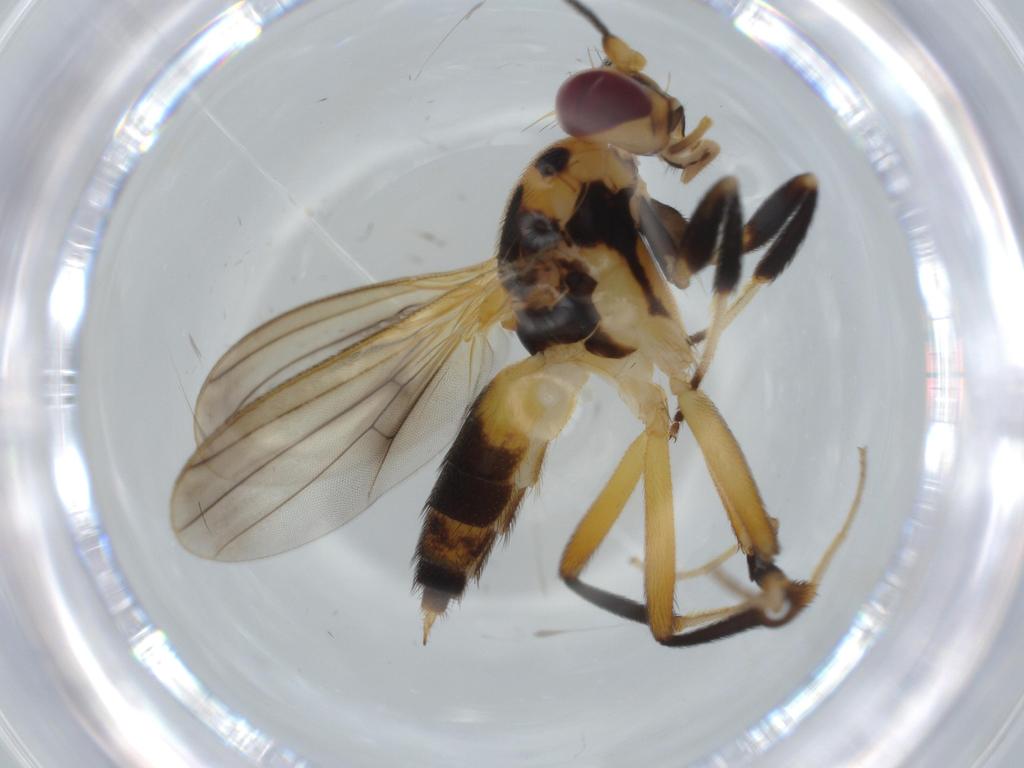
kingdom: Animalia
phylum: Arthropoda
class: Insecta
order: Diptera
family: Clusiidae
